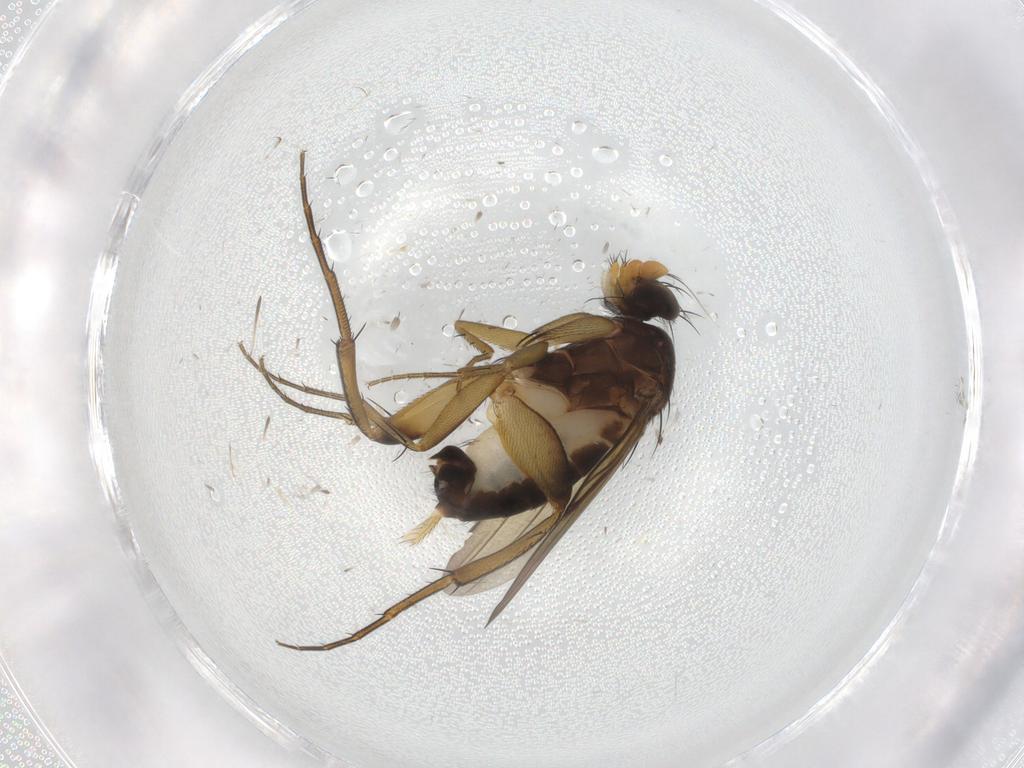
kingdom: Animalia
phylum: Arthropoda
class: Insecta
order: Diptera
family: Phoridae
